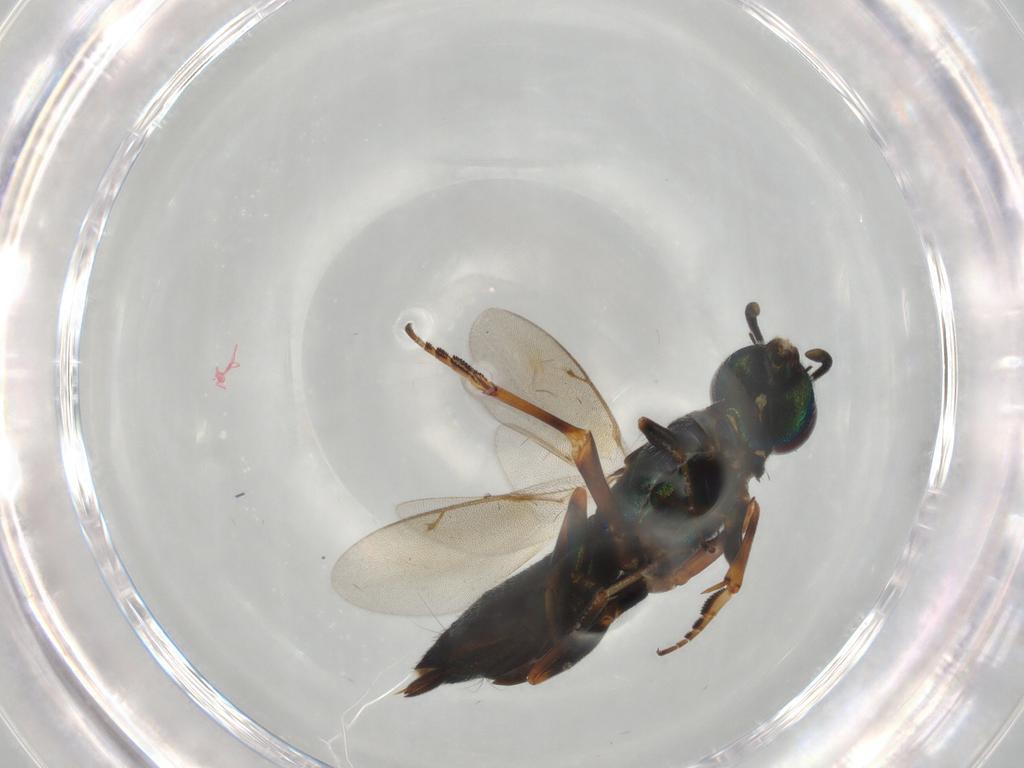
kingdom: Animalia
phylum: Arthropoda
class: Insecta
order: Hymenoptera
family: Eupelmidae
